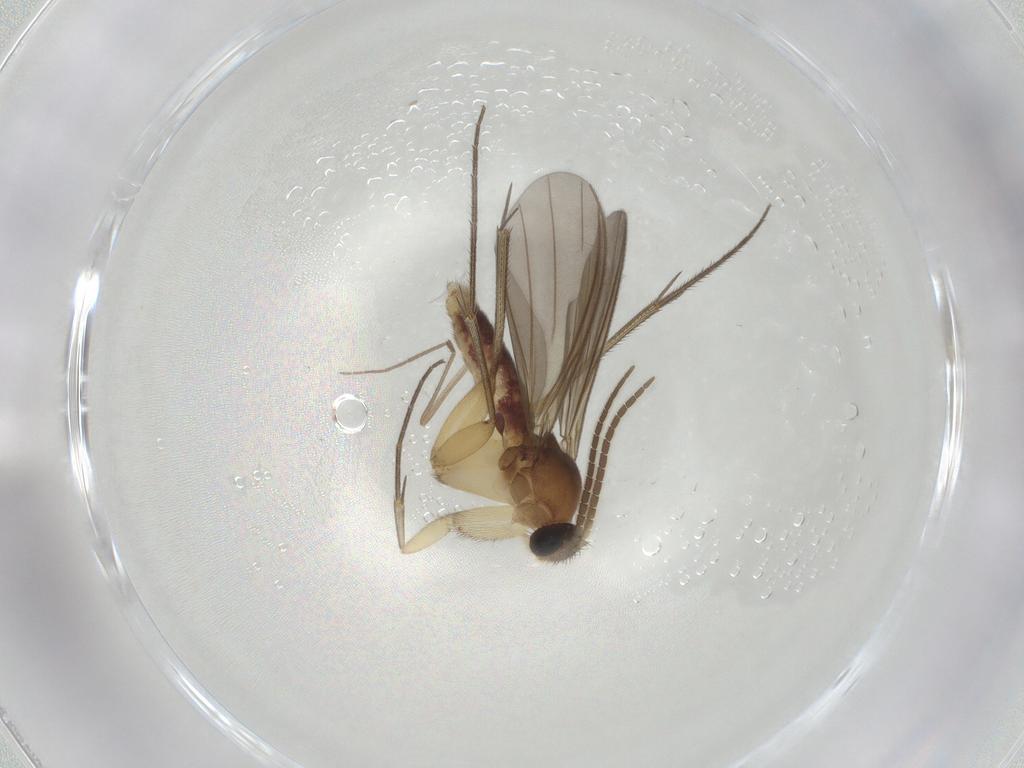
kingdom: Animalia
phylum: Arthropoda
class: Insecta
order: Diptera
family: Mycetophilidae
